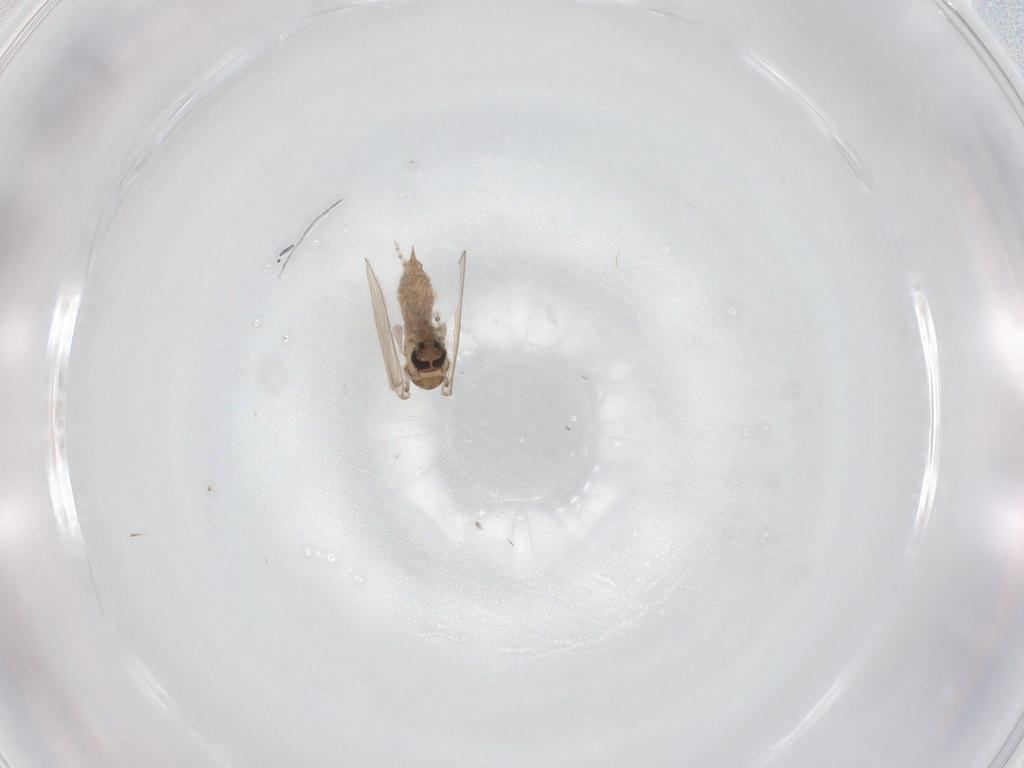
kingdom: Animalia
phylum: Arthropoda
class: Insecta
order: Diptera
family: Psychodidae
